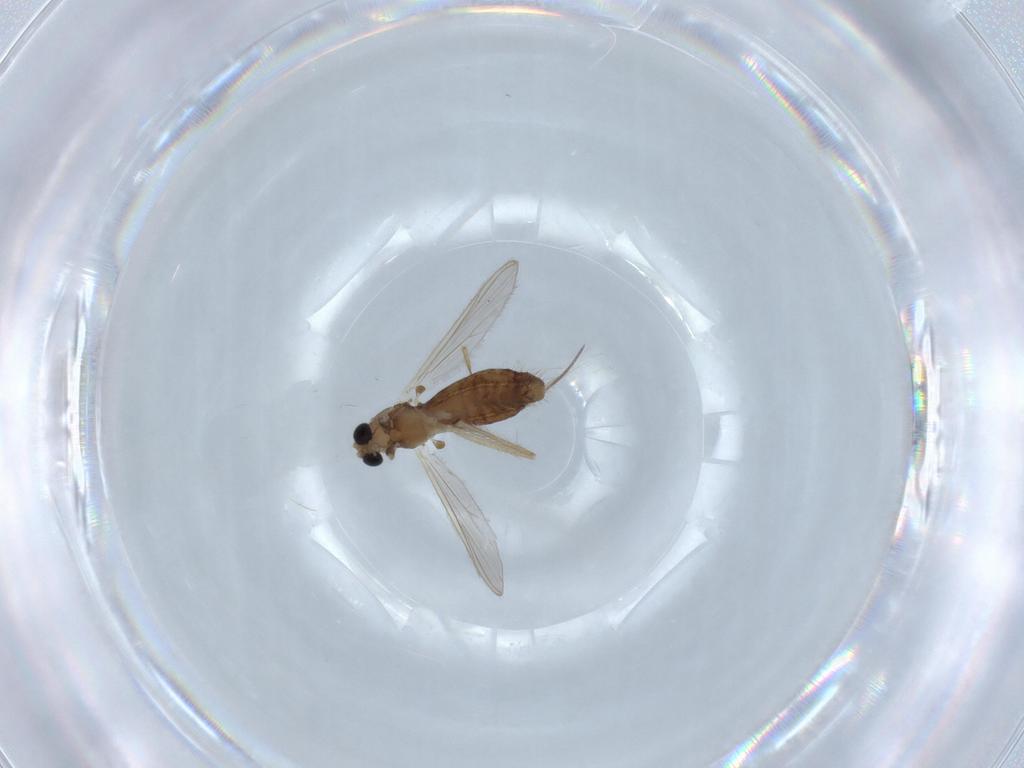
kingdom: Animalia
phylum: Arthropoda
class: Insecta
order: Diptera
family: Chironomidae
